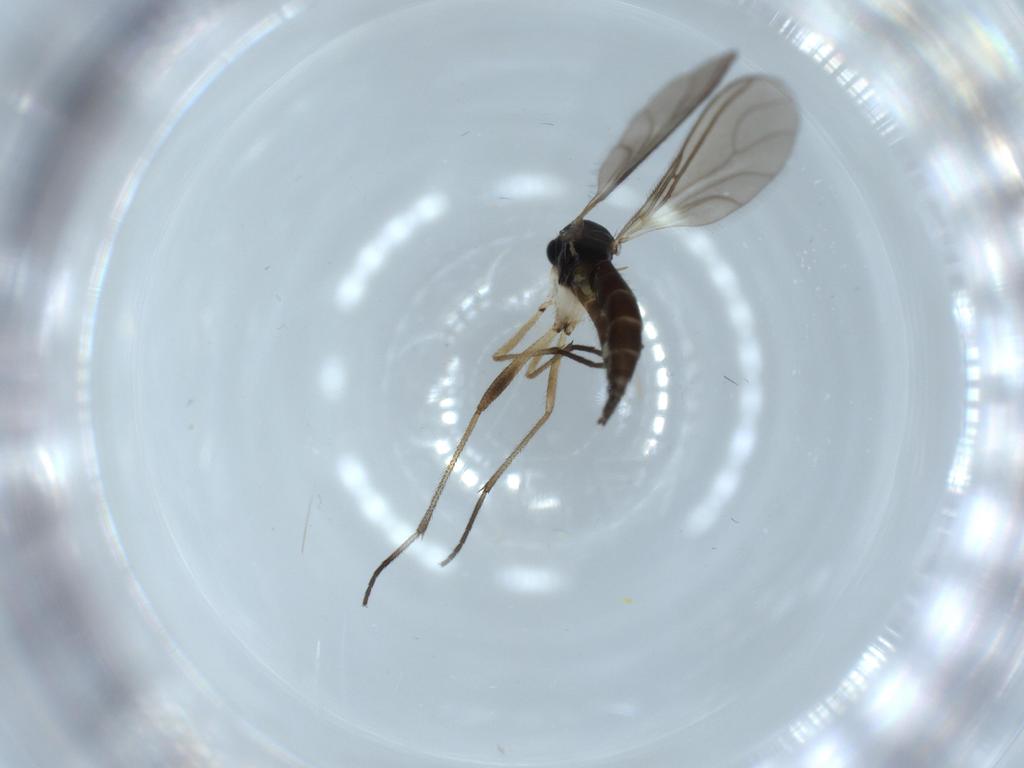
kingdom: Animalia
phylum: Arthropoda
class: Insecta
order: Diptera
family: Sciaridae
